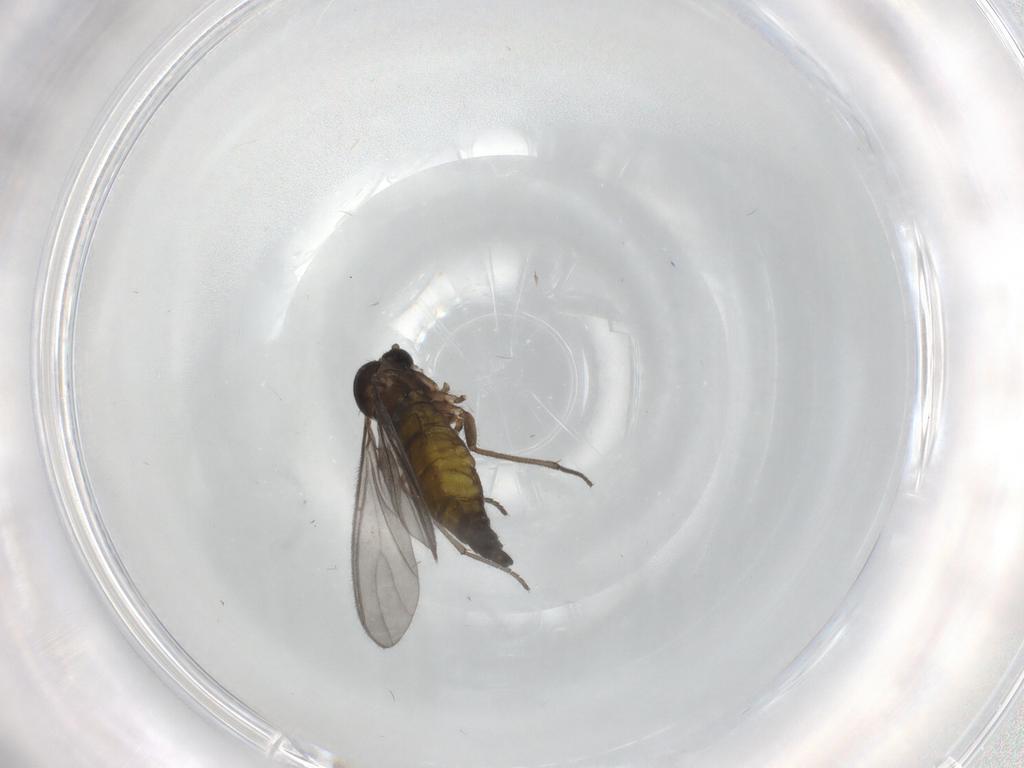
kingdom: Animalia
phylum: Arthropoda
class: Insecta
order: Diptera
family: Sciaridae
